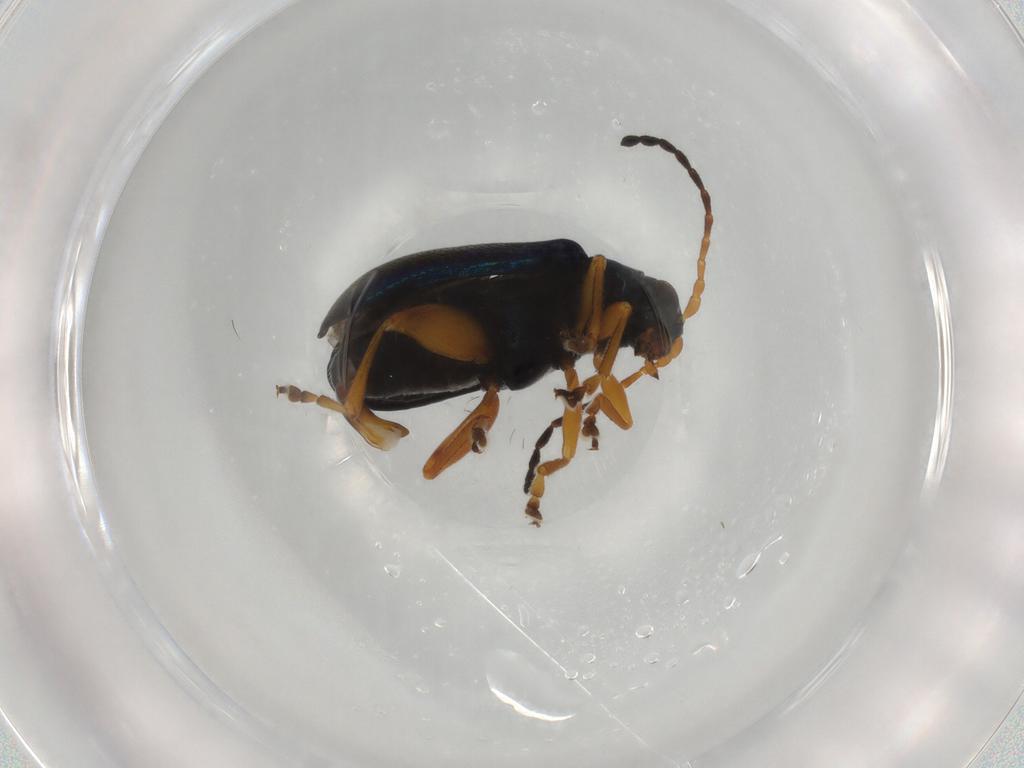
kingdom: Animalia
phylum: Arthropoda
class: Insecta
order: Coleoptera
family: Chrysomelidae
